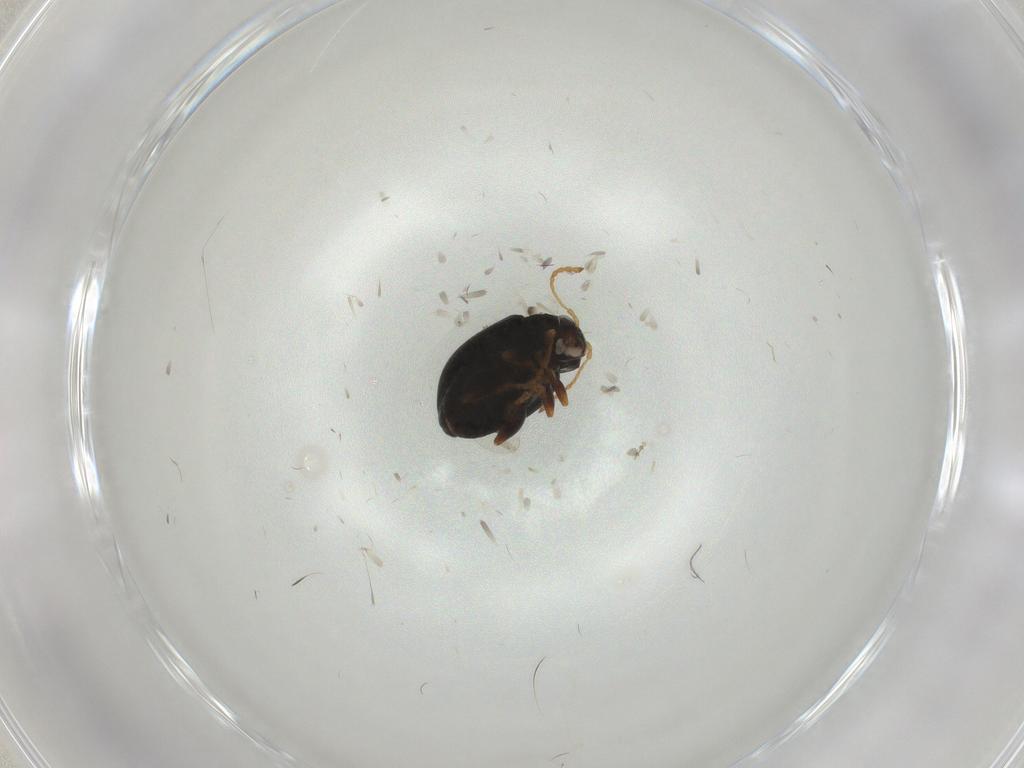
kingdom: Animalia
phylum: Arthropoda
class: Insecta
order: Coleoptera
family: Chrysomelidae
